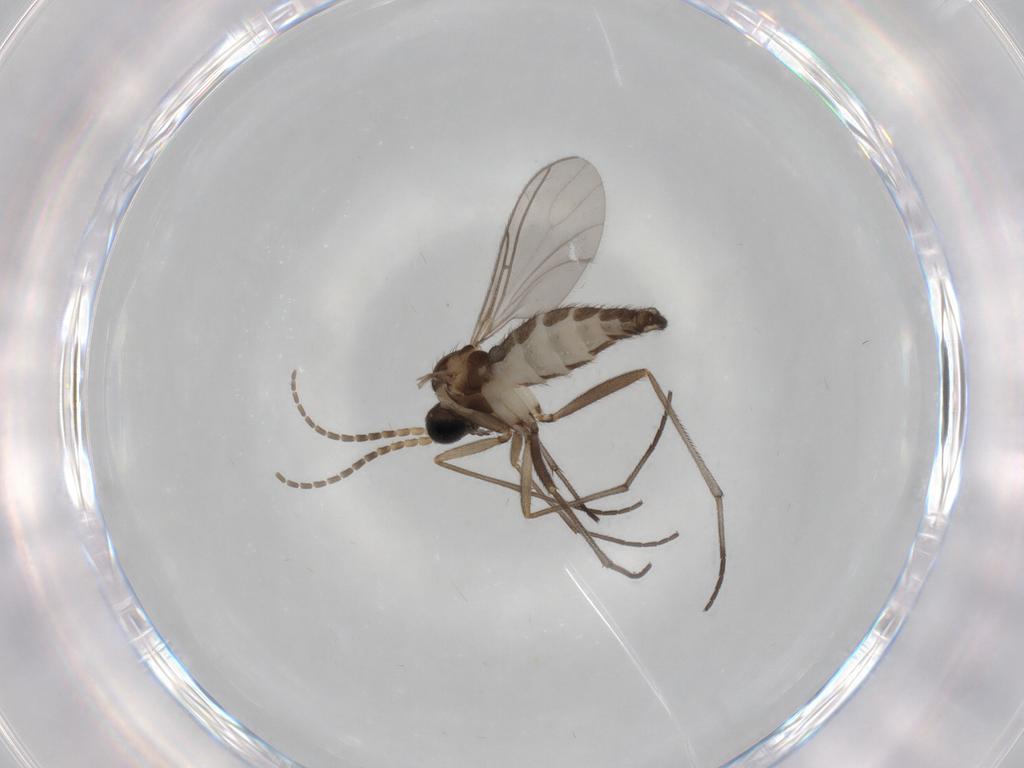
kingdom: Animalia
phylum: Arthropoda
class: Insecta
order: Diptera
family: Sciaridae
